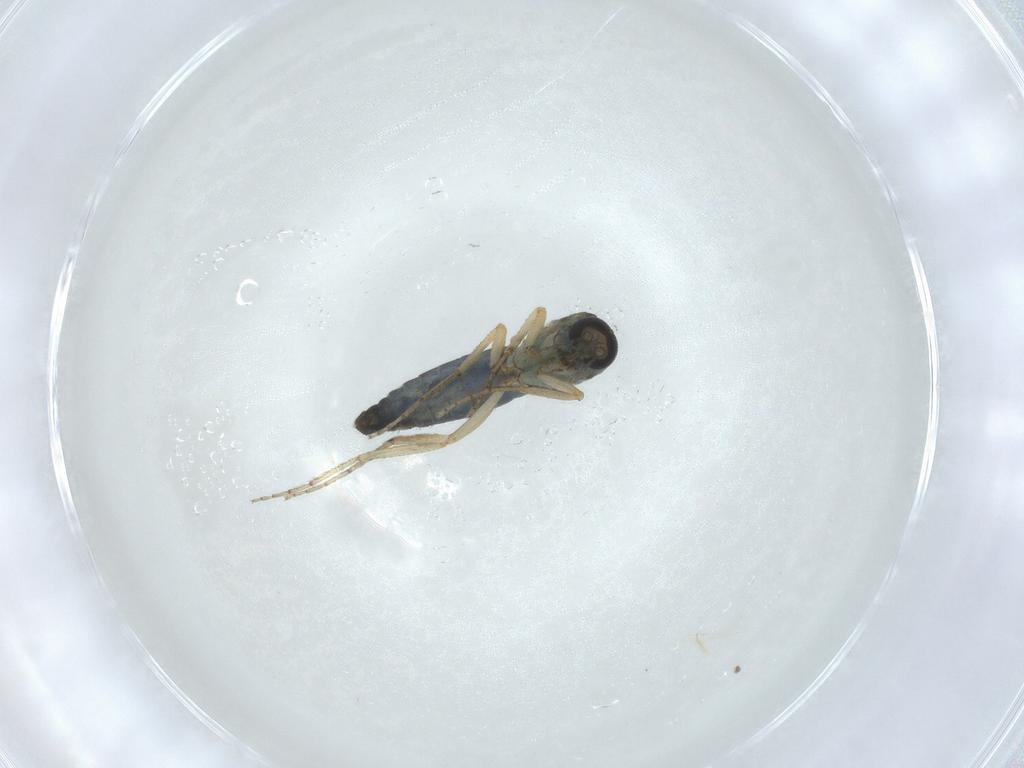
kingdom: Animalia
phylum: Arthropoda
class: Insecta
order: Diptera
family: Ceratopogonidae
